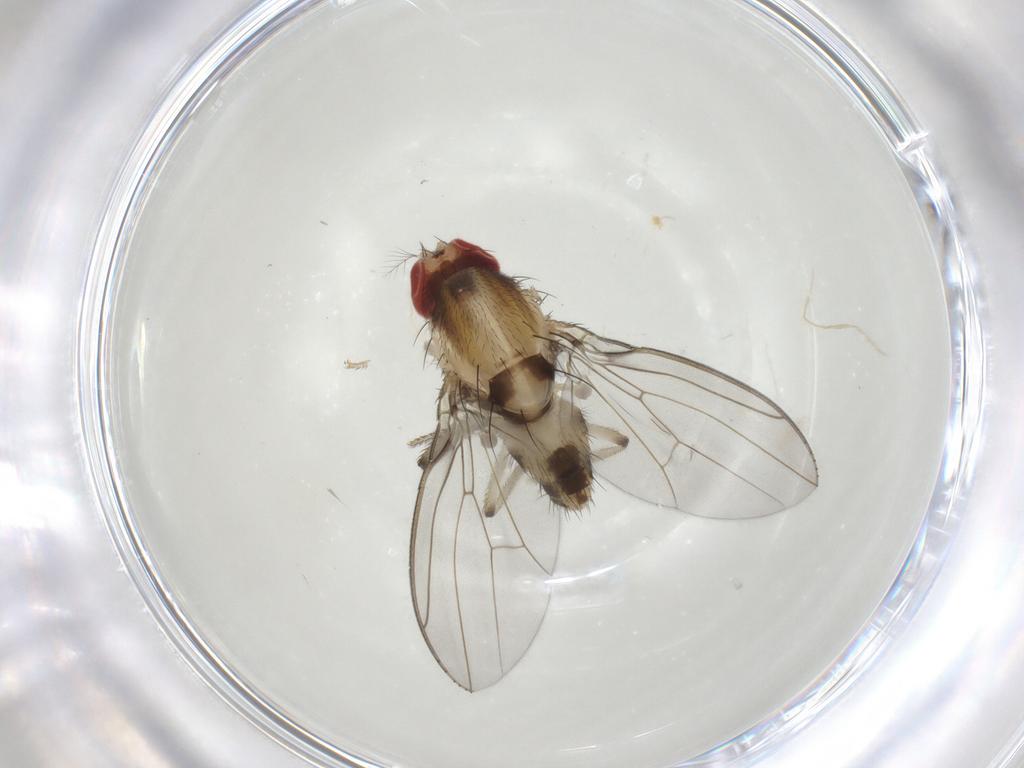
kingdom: Animalia
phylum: Arthropoda
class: Insecta
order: Diptera
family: Drosophilidae
